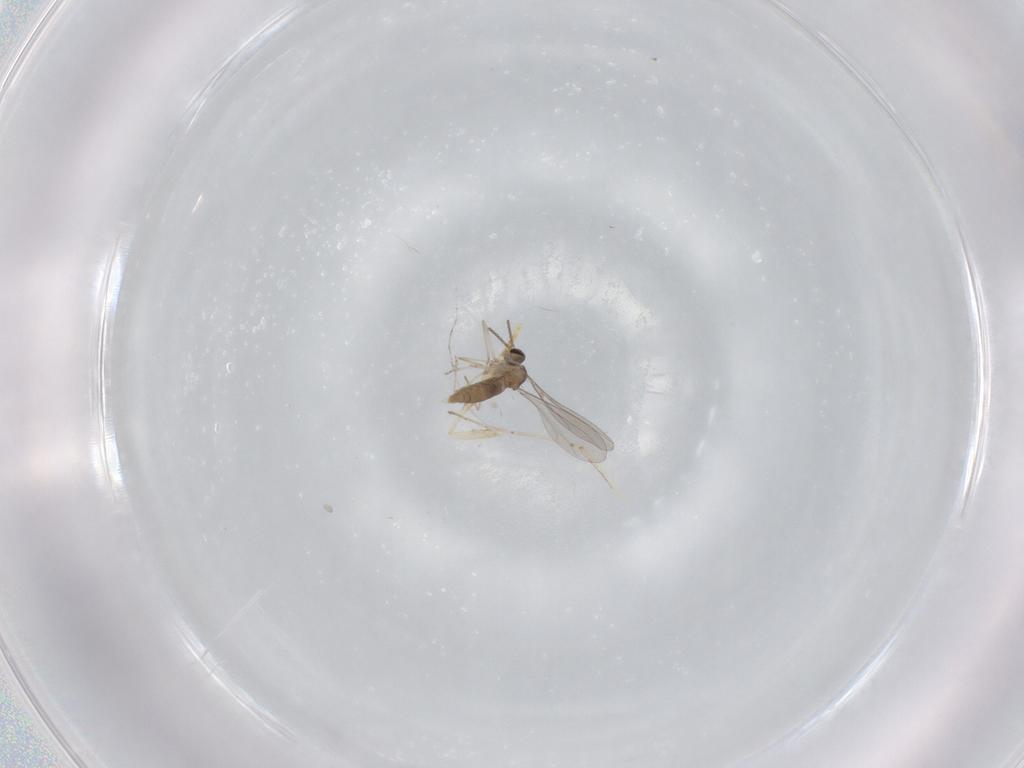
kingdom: Animalia
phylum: Arthropoda
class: Insecta
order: Diptera
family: Cecidomyiidae
